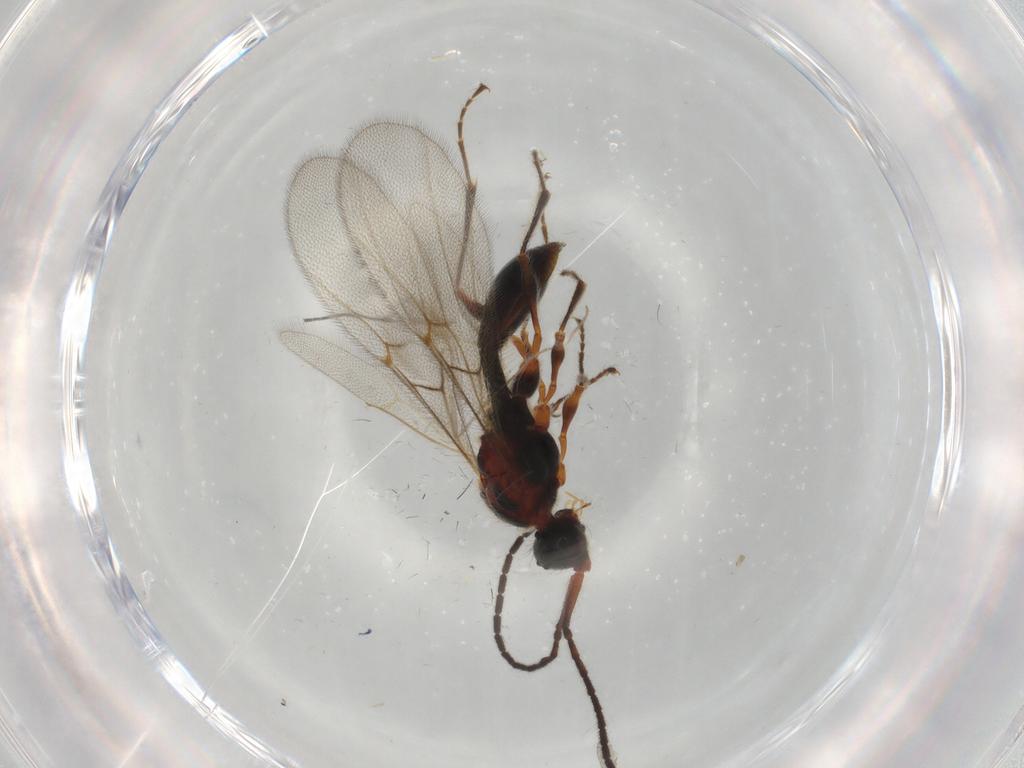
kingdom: Animalia
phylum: Arthropoda
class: Insecta
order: Hymenoptera
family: Diapriidae
